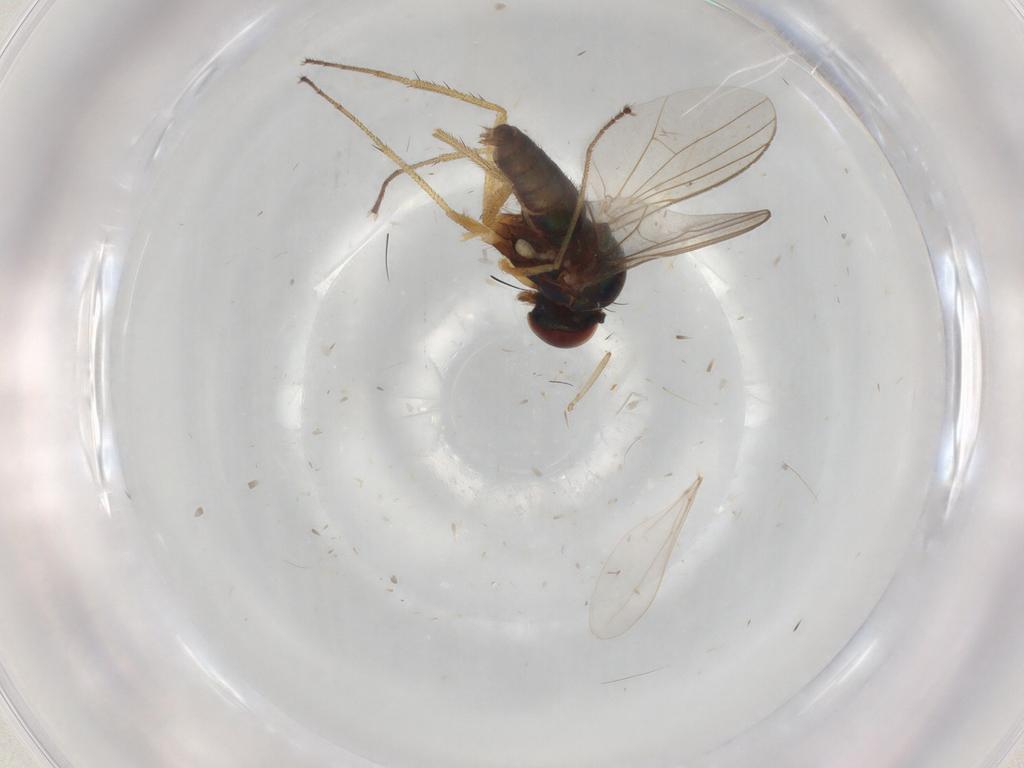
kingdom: Animalia
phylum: Arthropoda
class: Insecta
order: Diptera
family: Dolichopodidae
